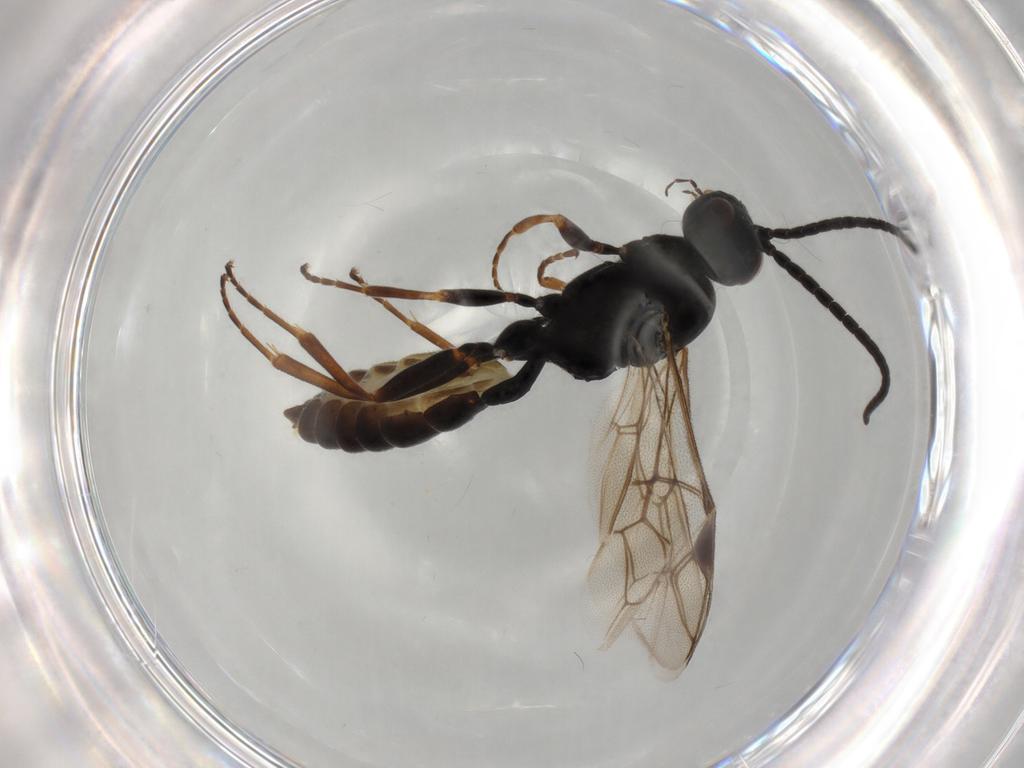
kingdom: Animalia
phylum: Arthropoda
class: Insecta
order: Hymenoptera
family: Ichneumonidae
